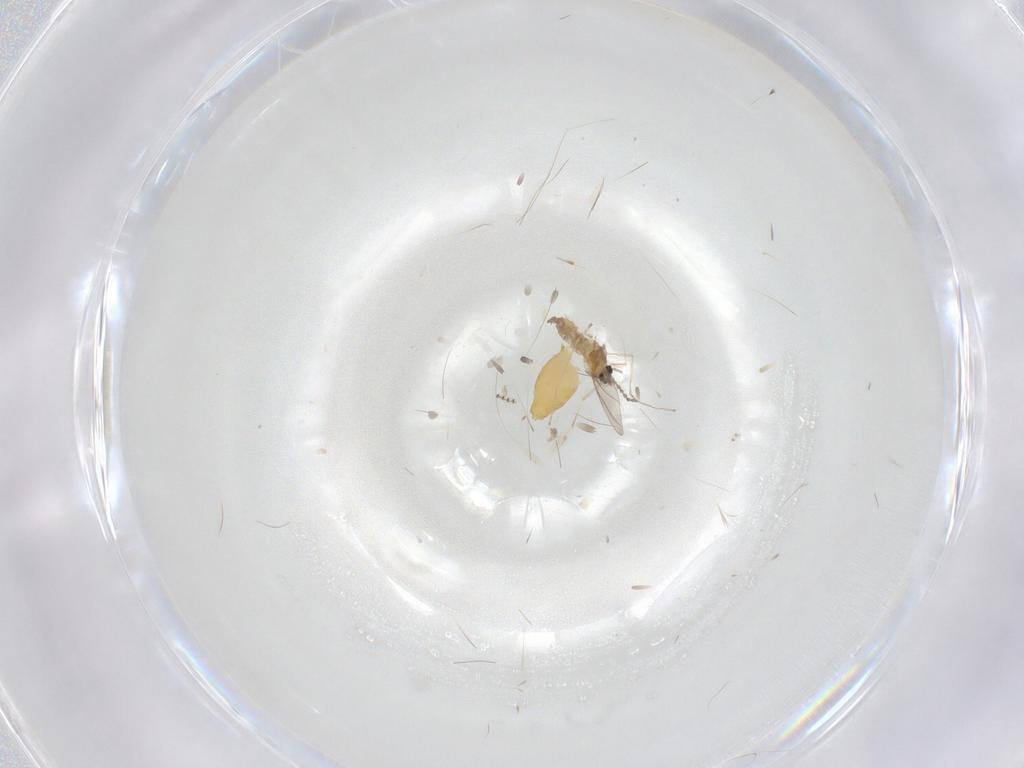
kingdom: Animalia
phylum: Arthropoda
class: Insecta
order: Diptera
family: Chironomidae
